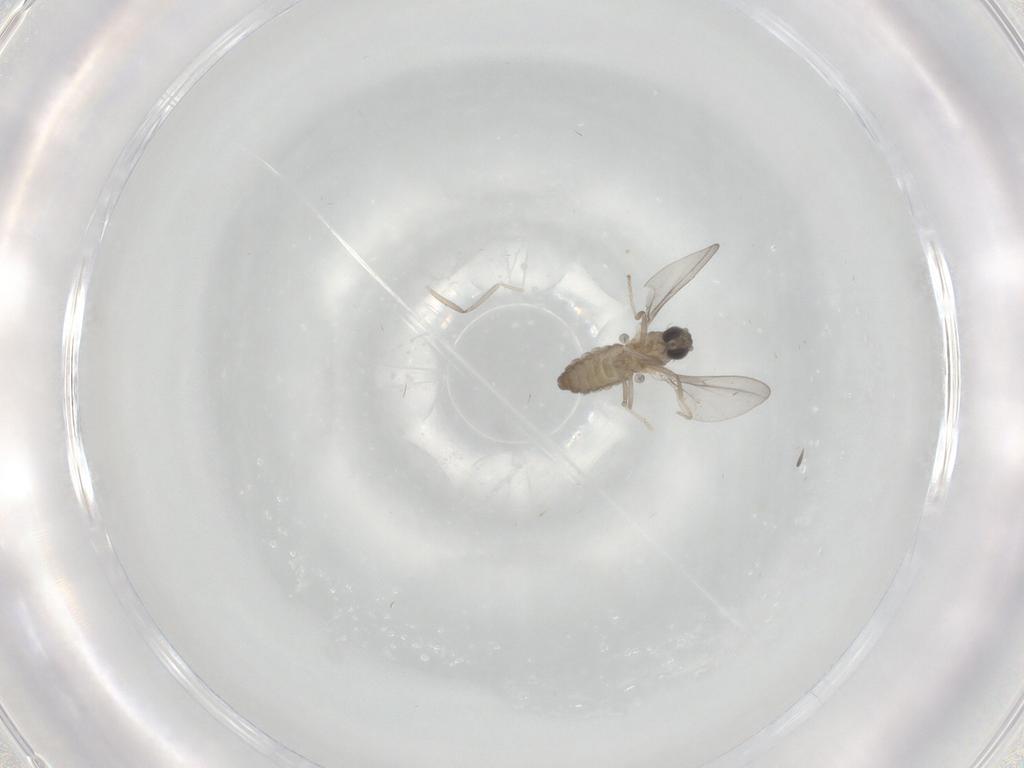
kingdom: Animalia
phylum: Arthropoda
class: Insecta
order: Diptera
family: Cecidomyiidae
